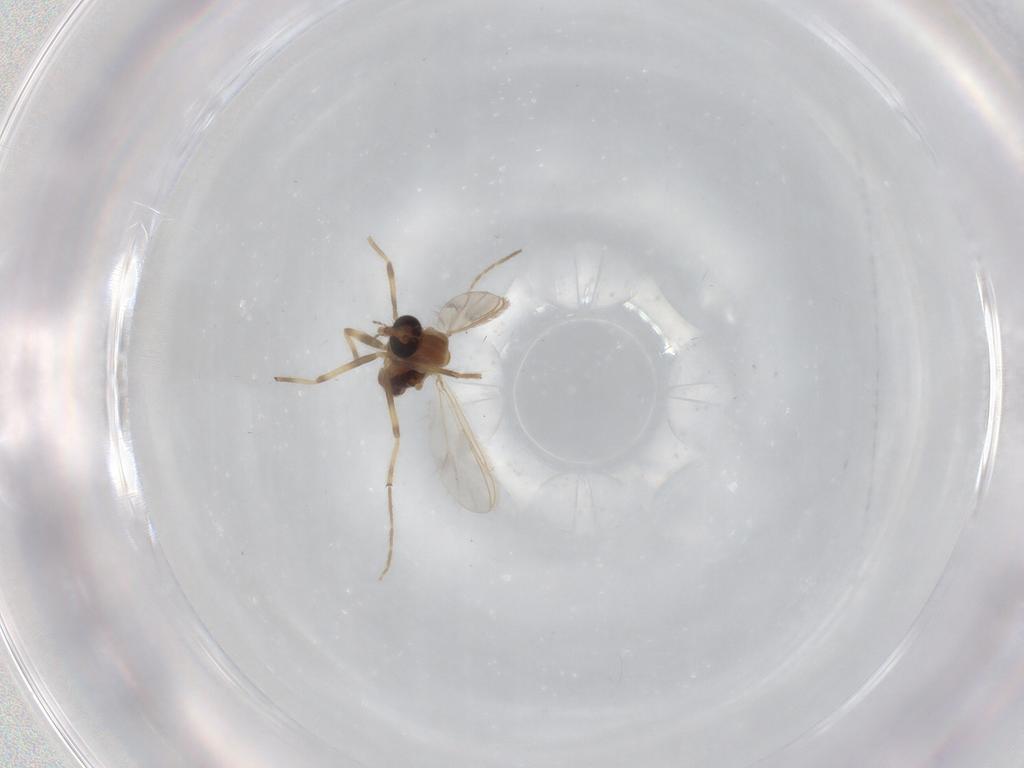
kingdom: Animalia
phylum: Arthropoda
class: Insecta
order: Diptera
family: Chironomidae
